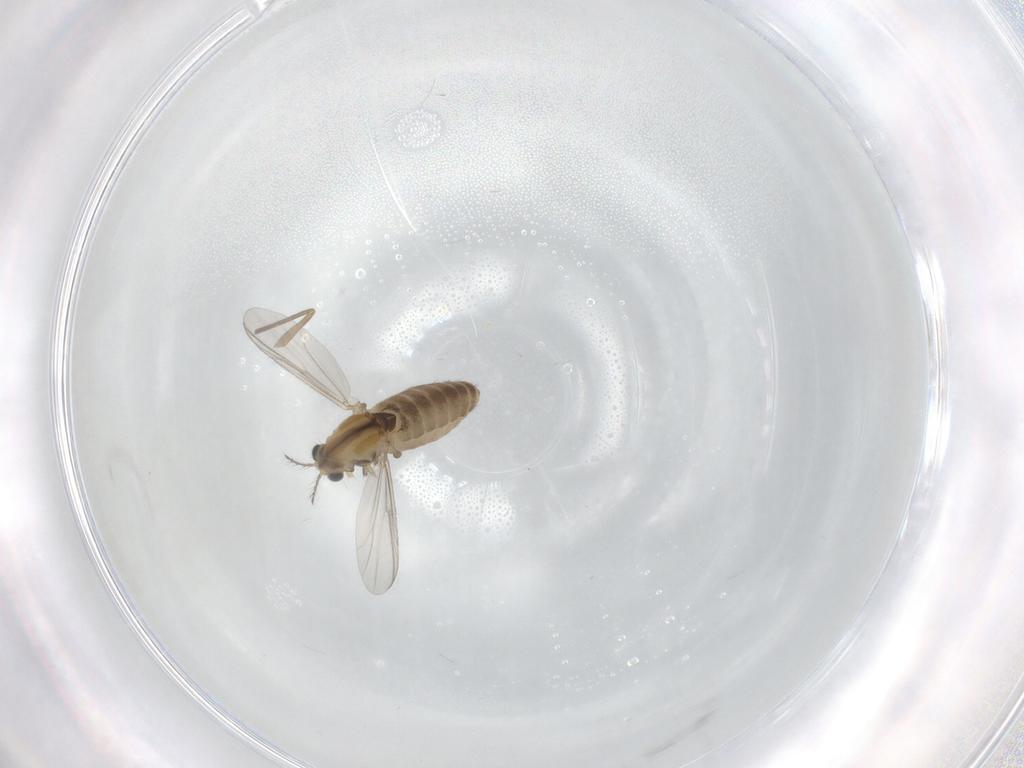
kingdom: Animalia
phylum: Arthropoda
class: Insecta
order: Diptera
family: Chironomidae
